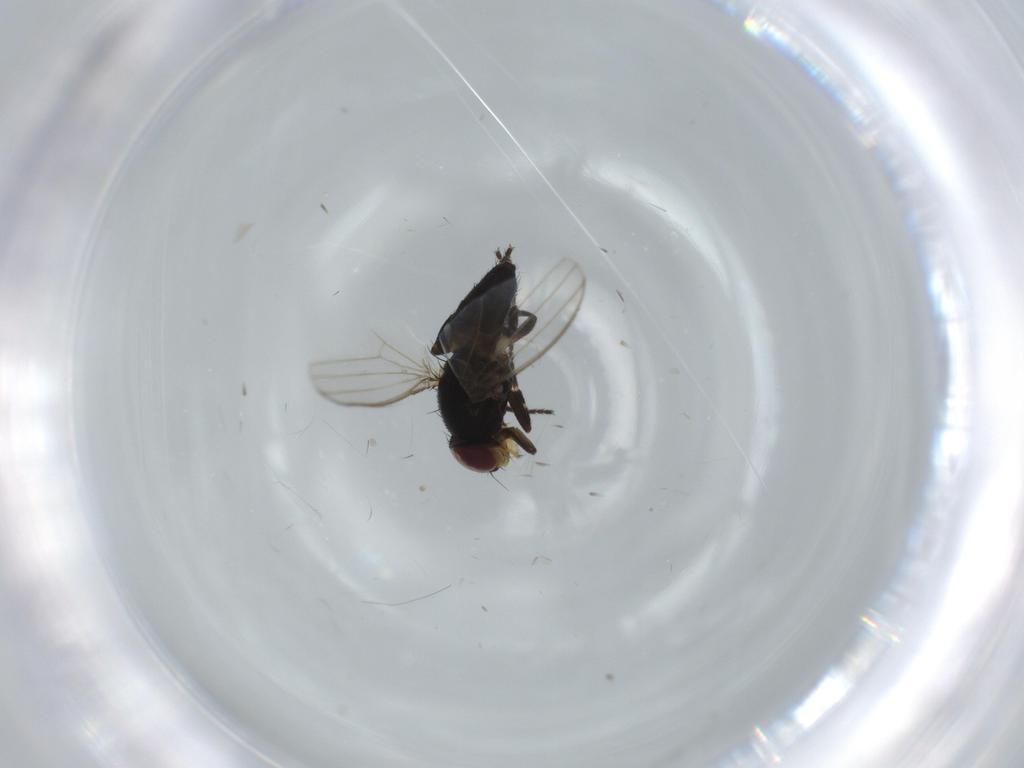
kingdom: Animalia
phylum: Arthropoda
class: Insecta
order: Diptera
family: Milichiidae
